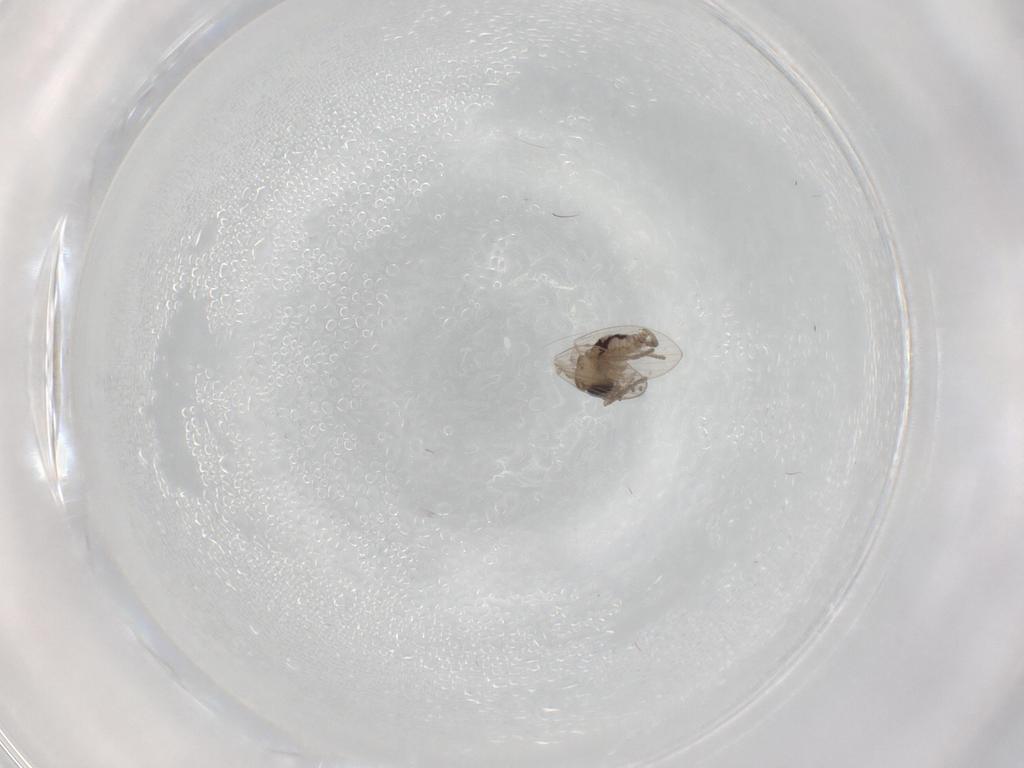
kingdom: Animalia
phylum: Arthropoda
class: Insecta
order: Diptera
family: Psychodidae
